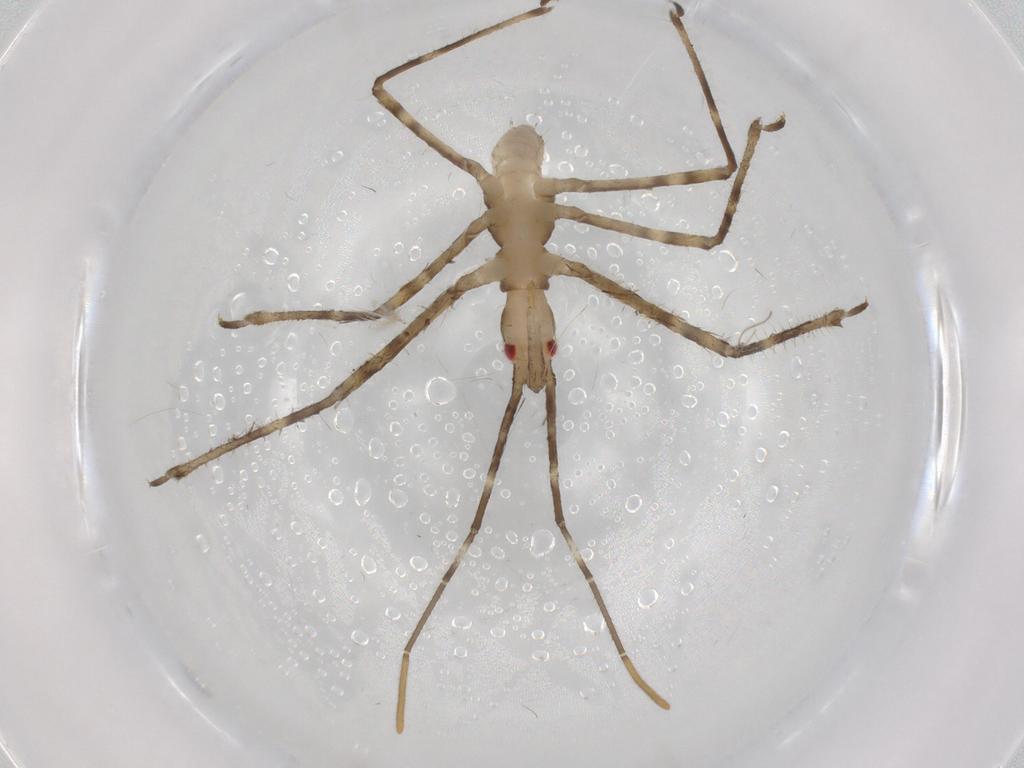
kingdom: Animalia
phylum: Arthropoda
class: Insecta
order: Hemiptera
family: Reduviidae
